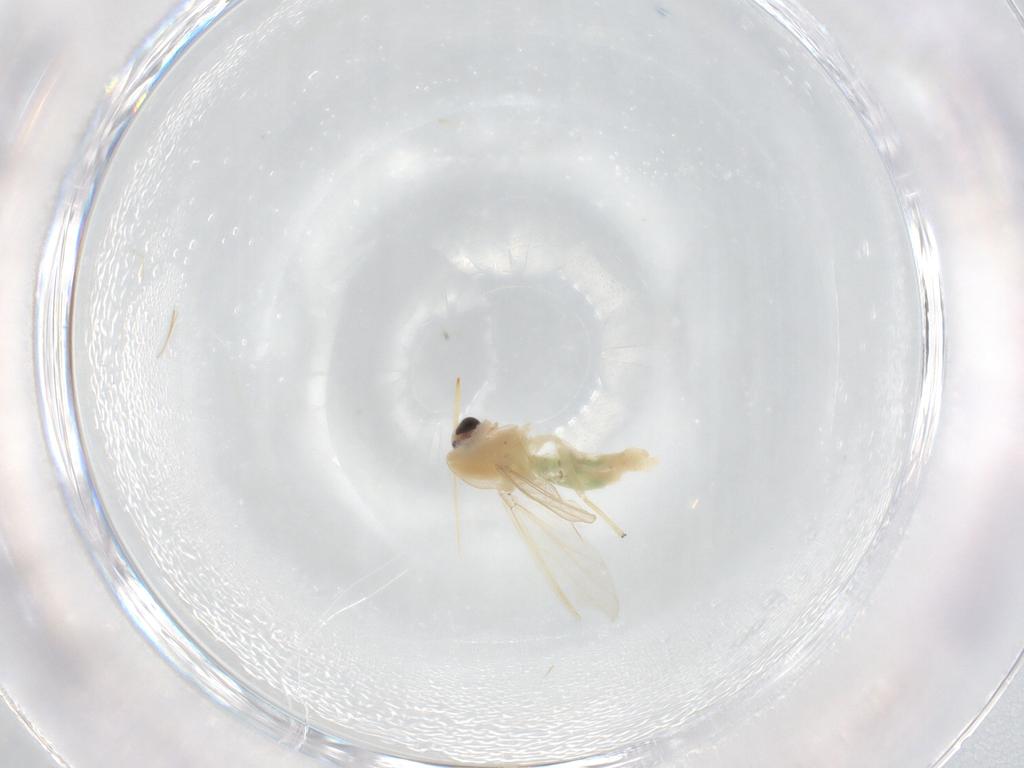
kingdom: Animalia
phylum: Arthropoda
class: Insecta
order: Diptera
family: Chironomidae
